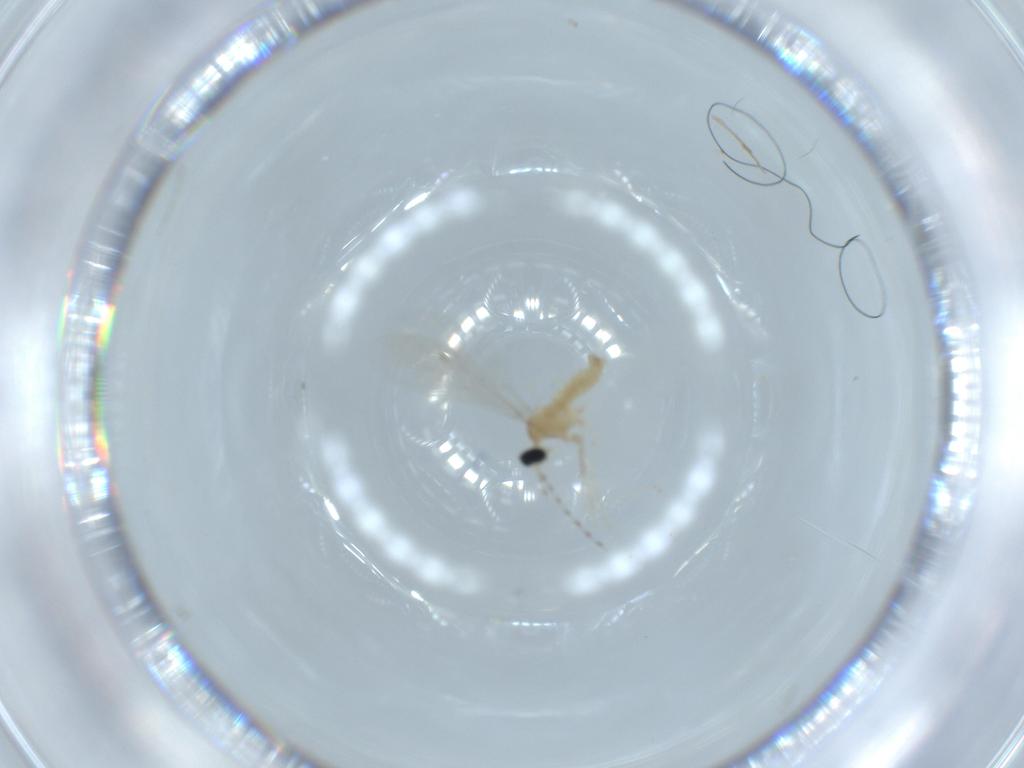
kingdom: Animalia
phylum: Arthropoda
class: Insecta
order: Diptera
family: Cecidomyiidae
